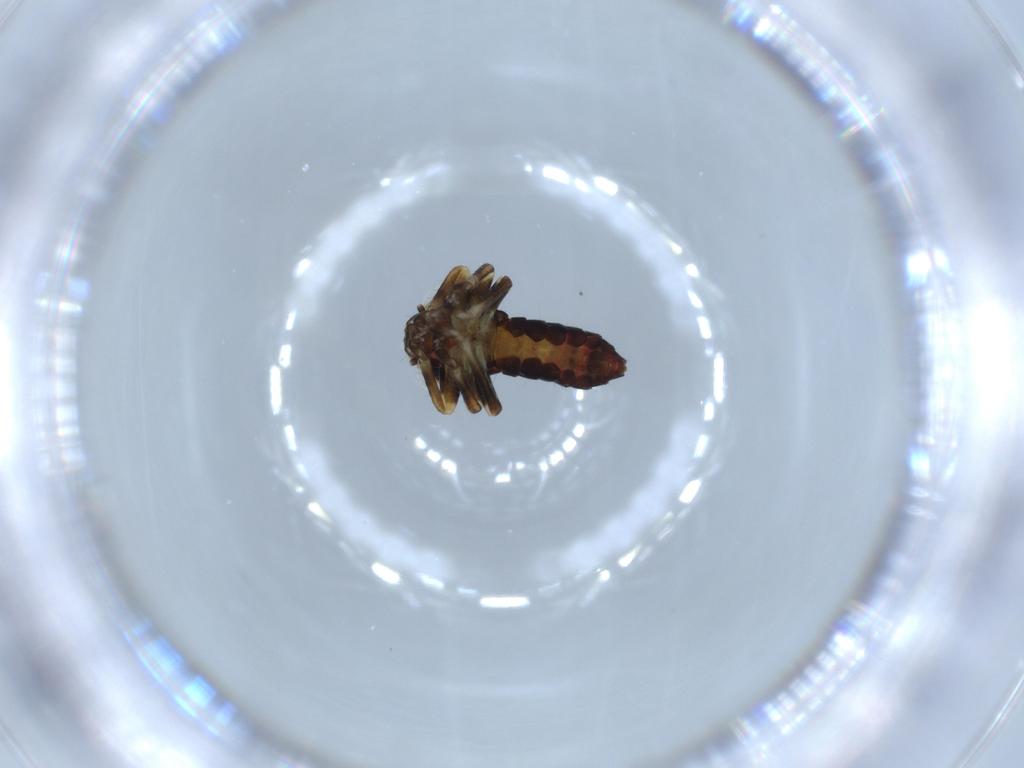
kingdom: Animalia
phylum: Arthropoda
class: Insecta
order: Hemiptera
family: Cicadellidae
